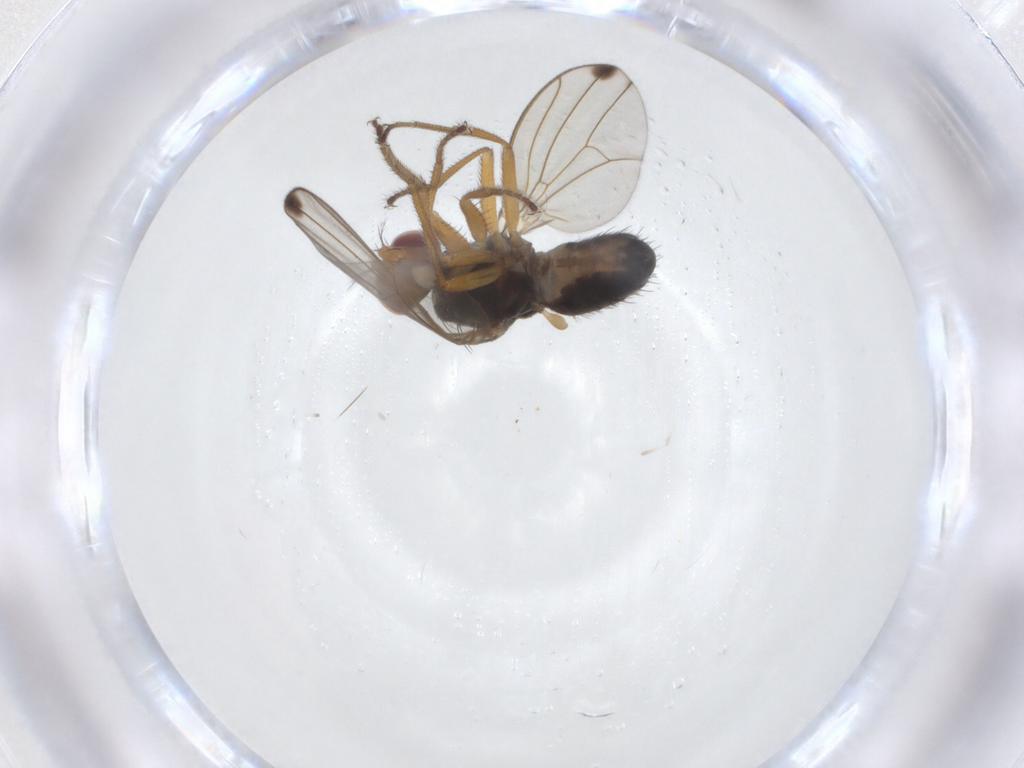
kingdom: Animalia
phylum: Arthropoda
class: Insecta
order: Diptera
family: Drosophilidae
